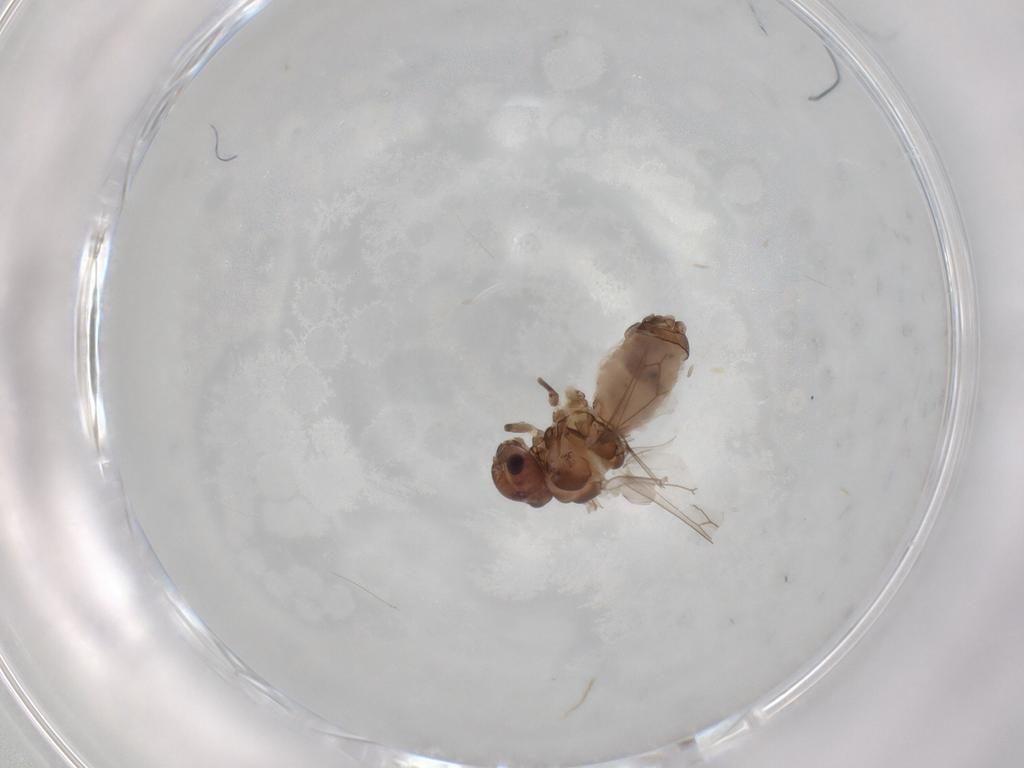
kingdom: Animalia
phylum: Arthropoda
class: Insecta
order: Psocodea
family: Peripsocidae
